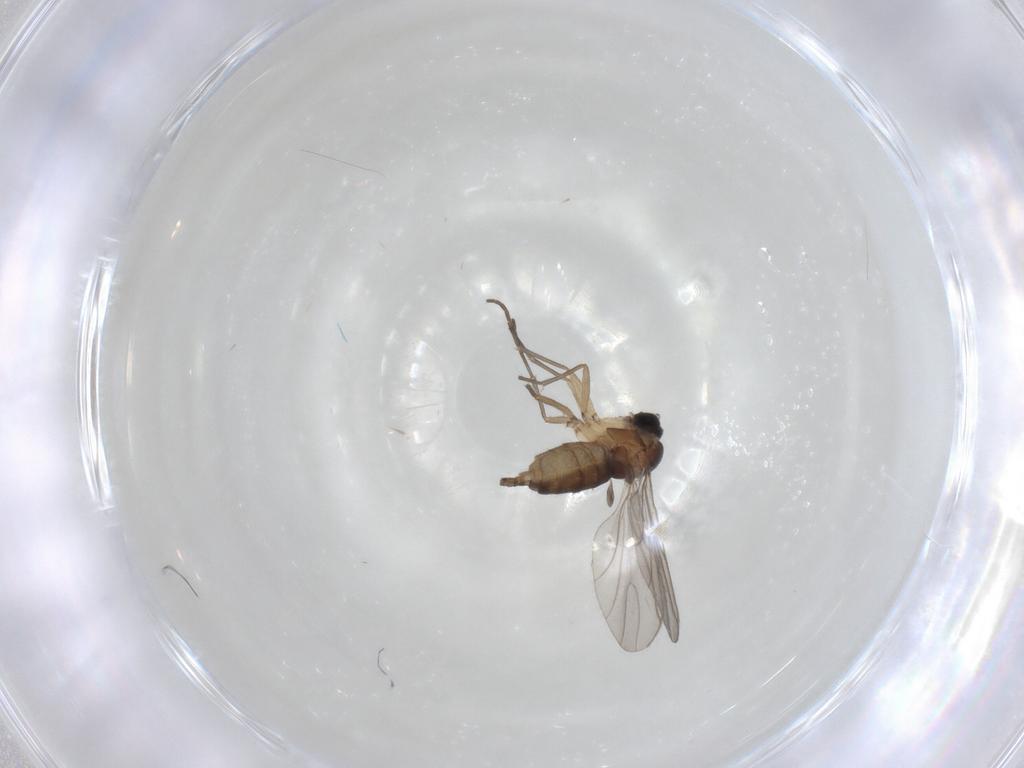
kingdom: Animalia
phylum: Arthropoda
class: Insecta
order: Diptera
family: Sciaridae
